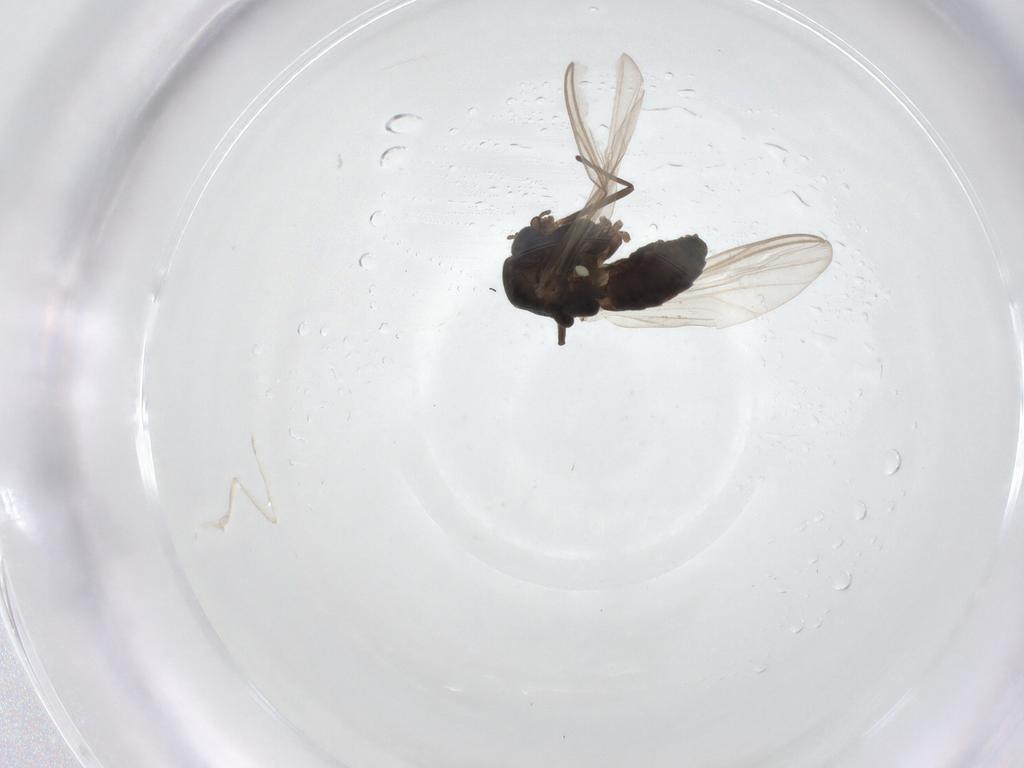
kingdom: Animalia
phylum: Arthropoda
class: Insecta
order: Diptera
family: Chironomidae
